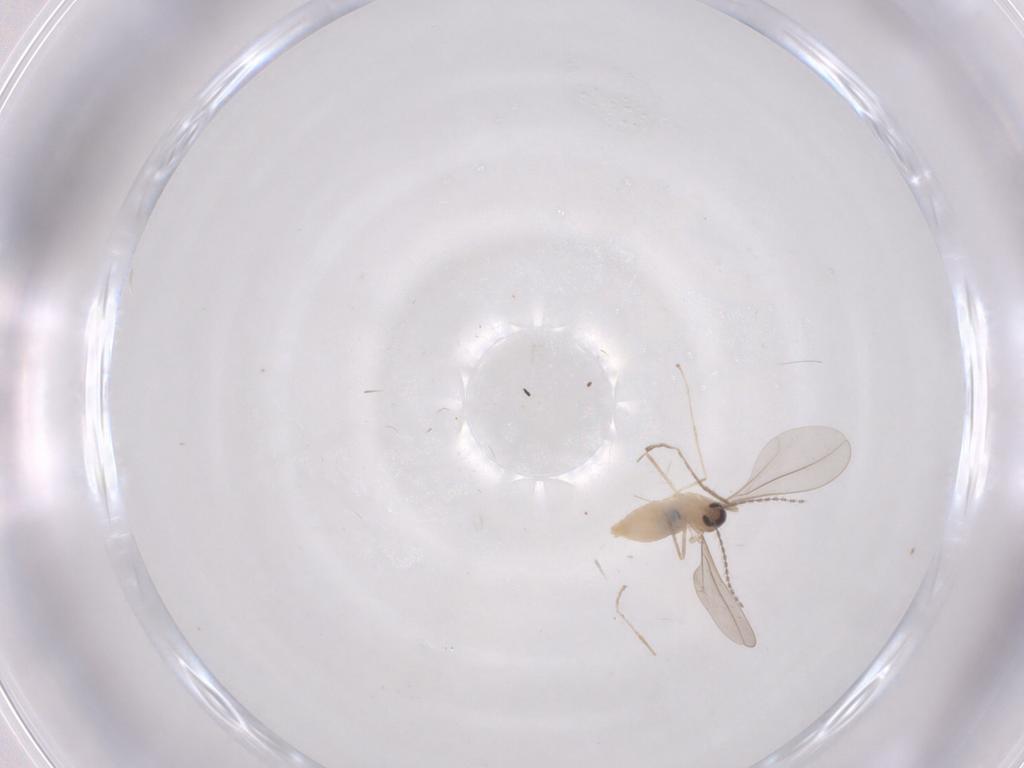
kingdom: Animalia
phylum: Arthropoda
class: Insecta
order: Diptera
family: Cecidomyiidae
